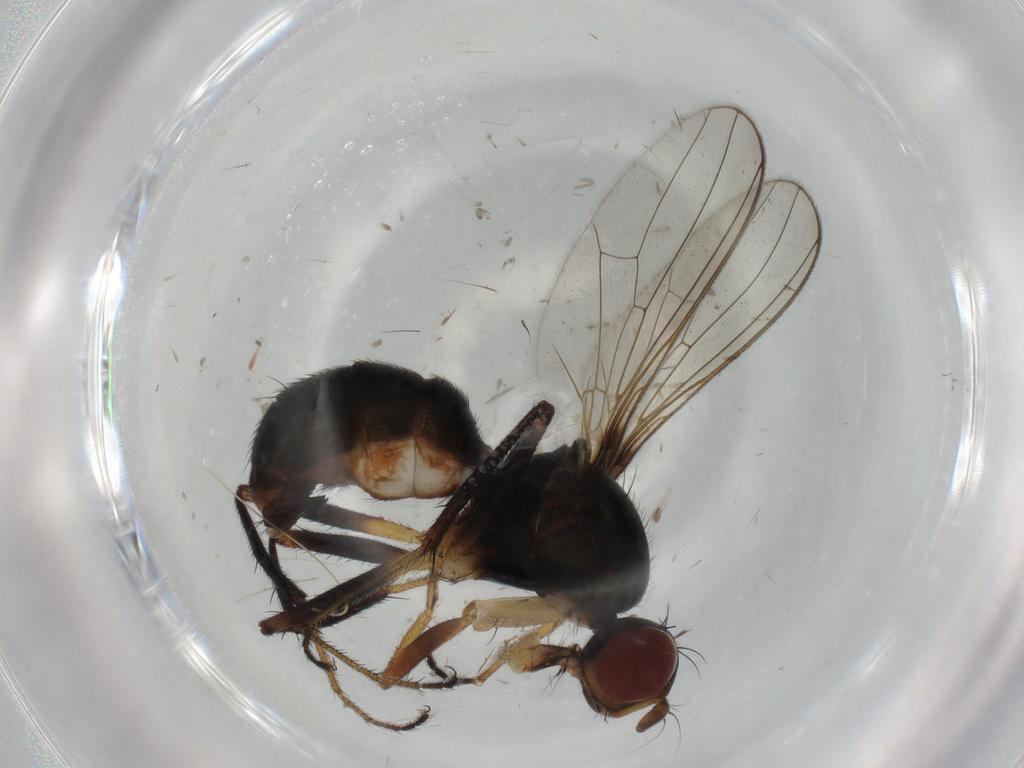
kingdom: Animalia
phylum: Arthropoda
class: Insecta
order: Diptera
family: Sepsidae
